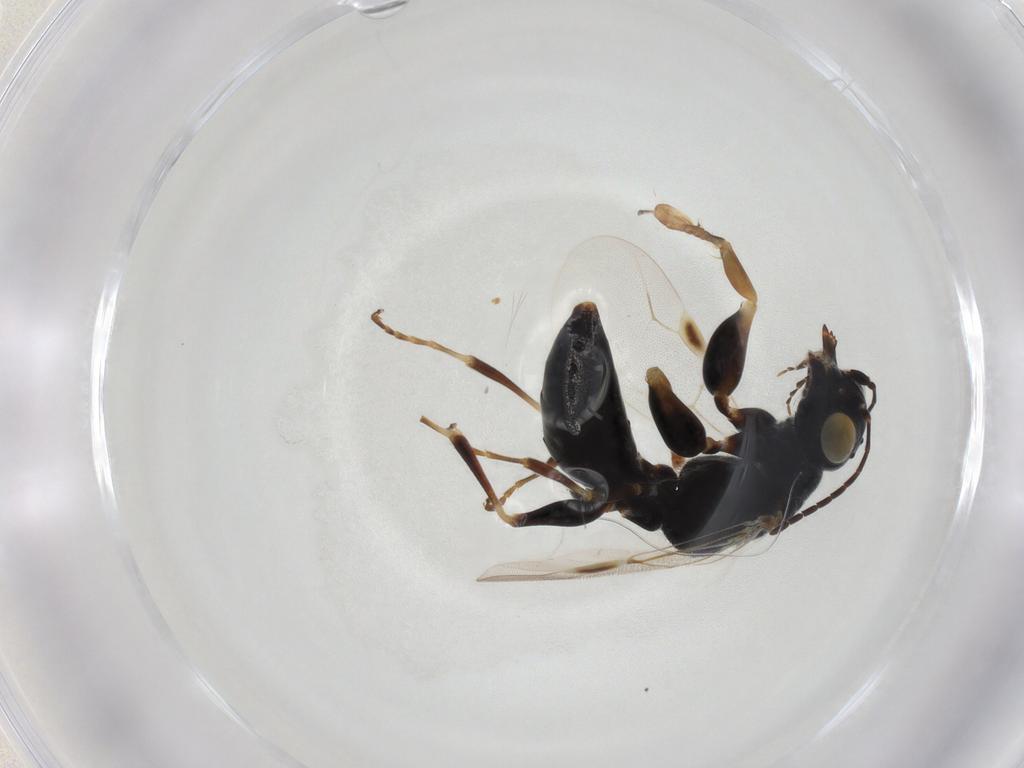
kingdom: Animalia
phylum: Arthropoda
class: Insecta
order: Hymenoptera
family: Dryinidae
